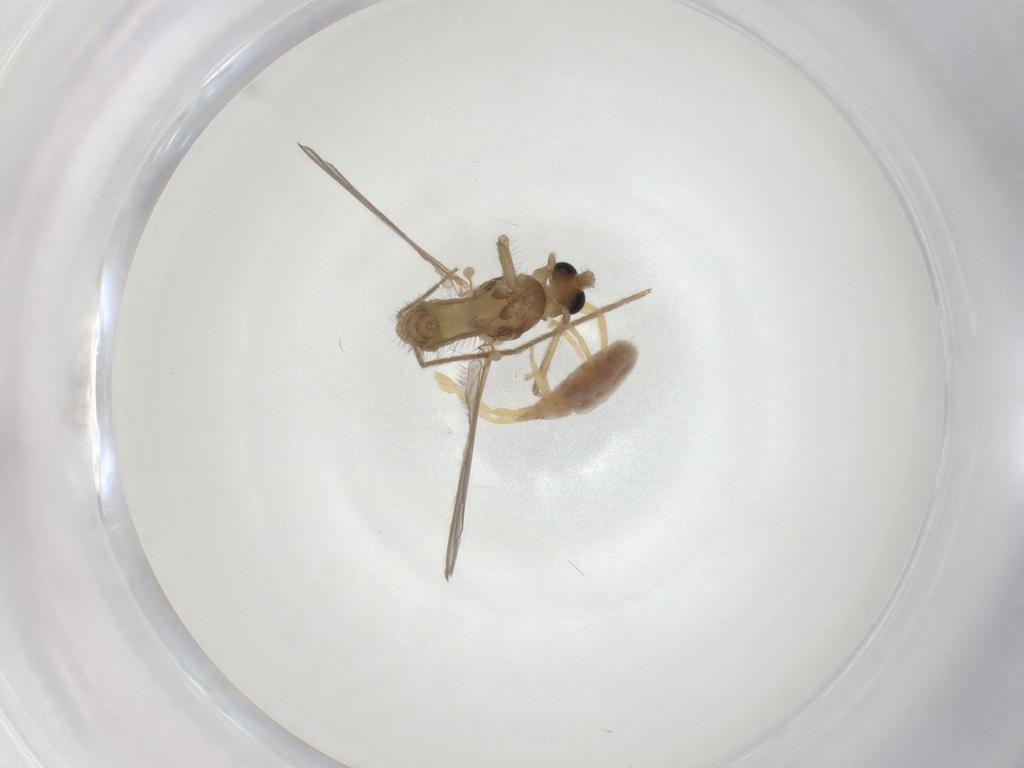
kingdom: Animalia
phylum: Arthropoda
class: Insecta
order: Diptera
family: Chironomidae
